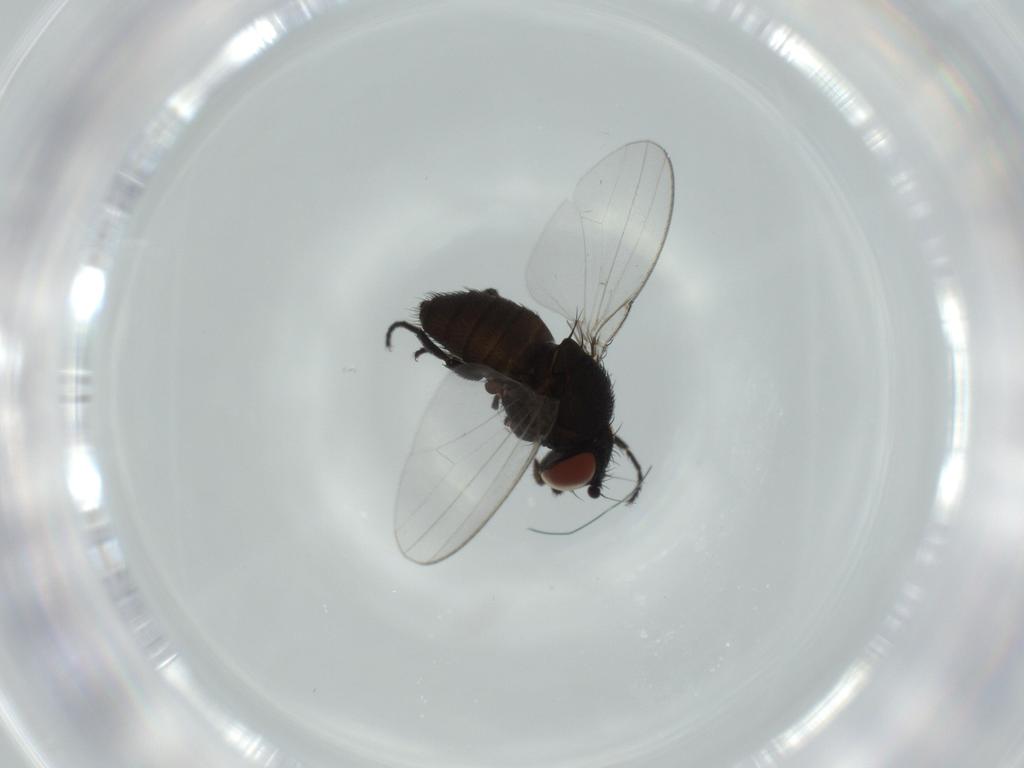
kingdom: Animalia
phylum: Arthropoda
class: Insecta
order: Diptera
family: Milichiidae
